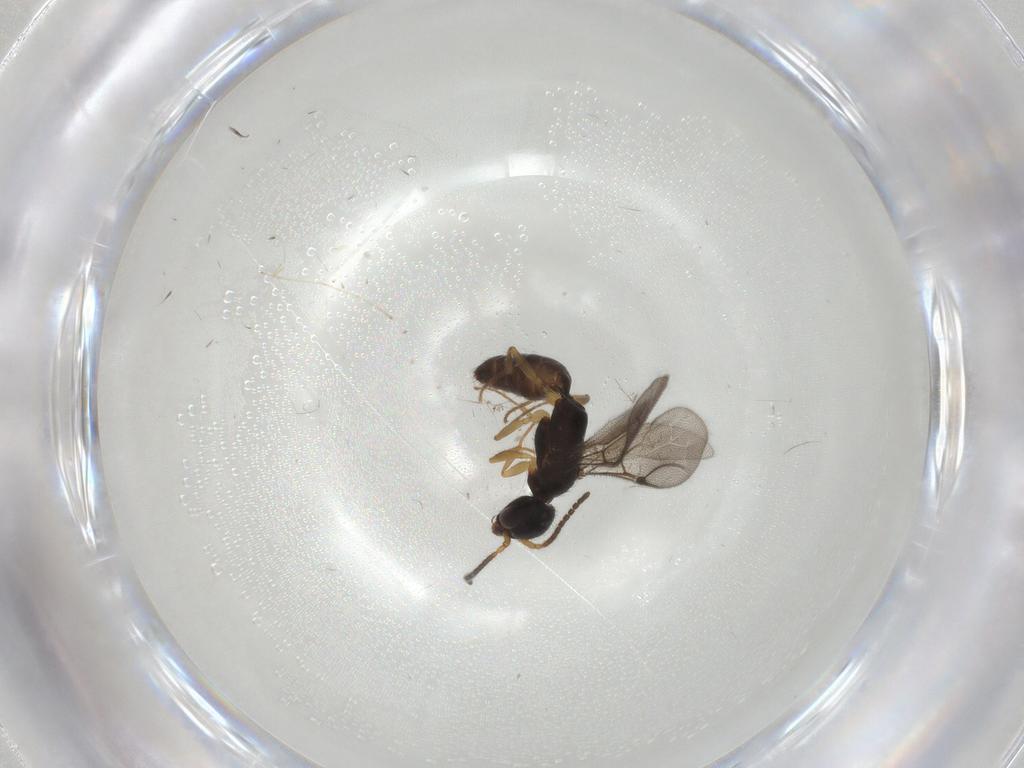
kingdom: Animalia
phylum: Arthropoda
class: Insecta
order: Hymenoptera
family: Bethylidae
